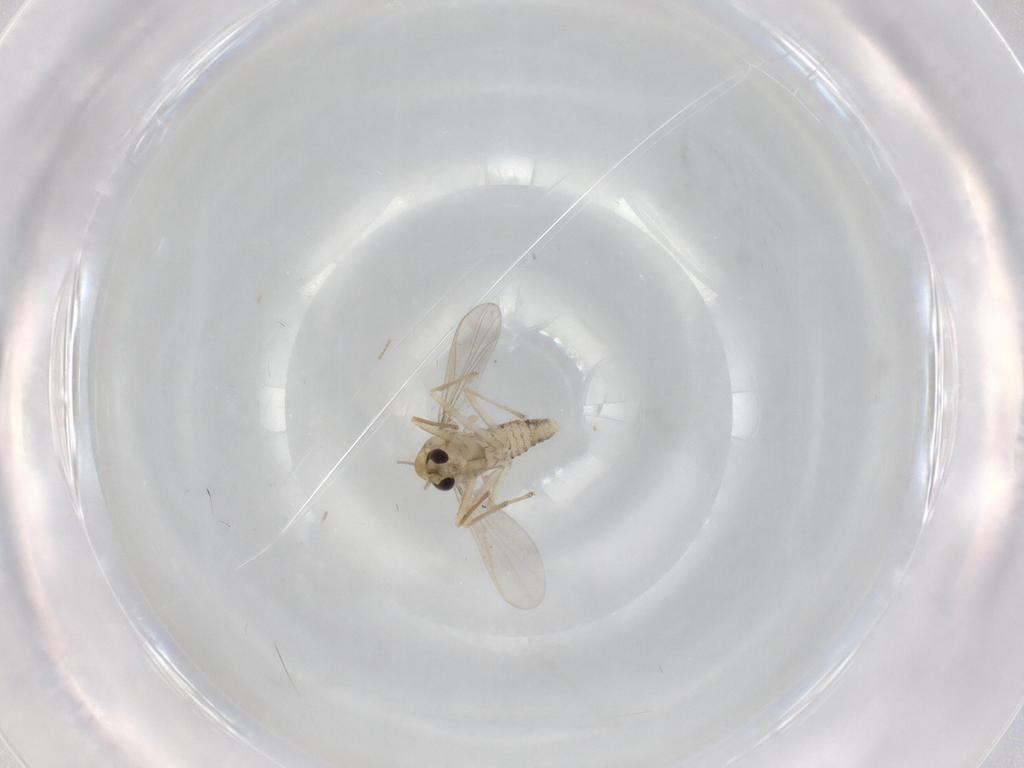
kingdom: Animalia
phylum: Arthropoda
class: Insecta
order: Diptera
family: Chironomidae
